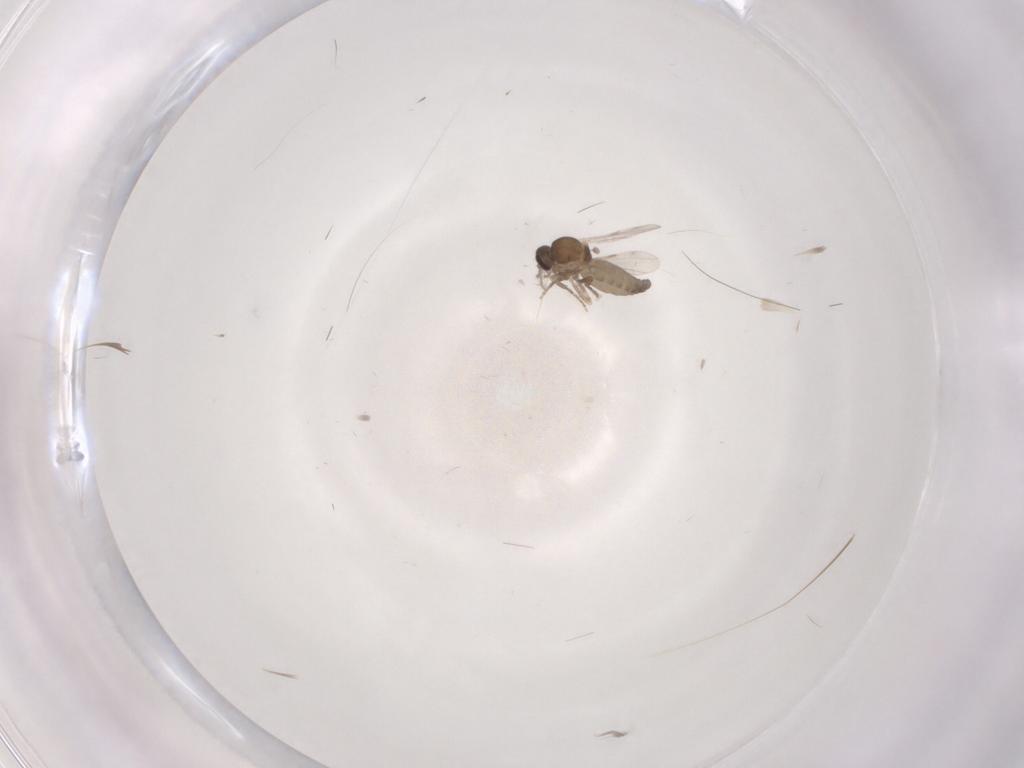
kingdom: Animalia
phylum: Arthropoda
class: Insecta
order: Diptera
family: Ceratopogonidae
